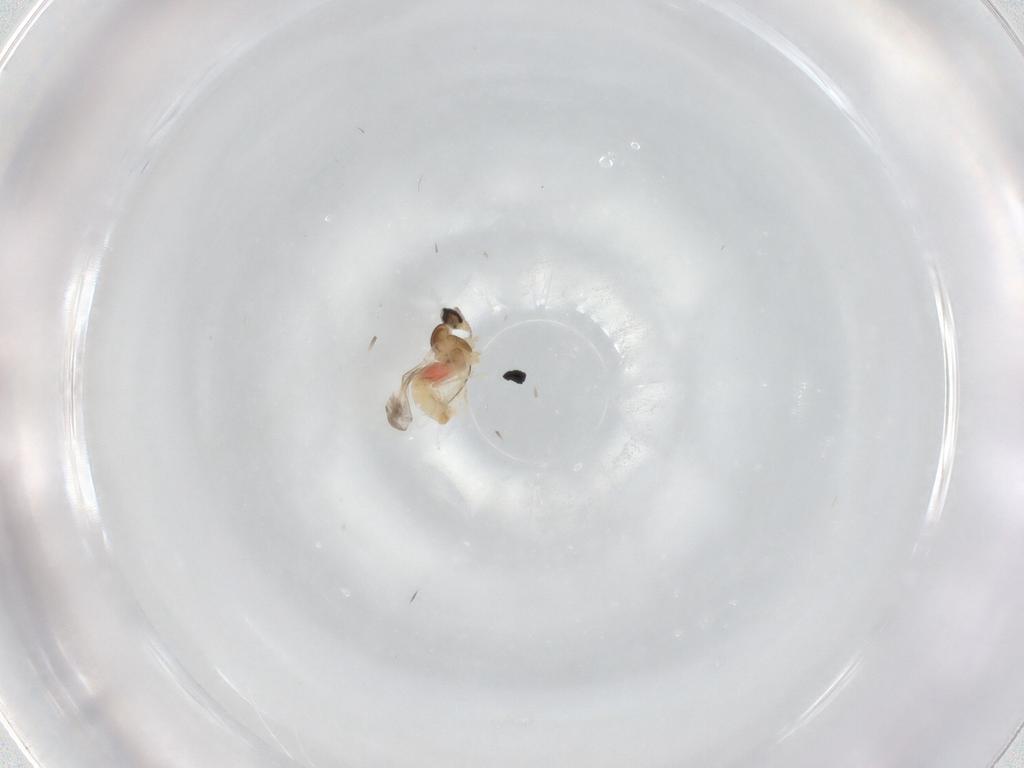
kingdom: Animalia
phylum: Arthropoda
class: Insecta
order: Diptera
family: Cecidomyiidae
